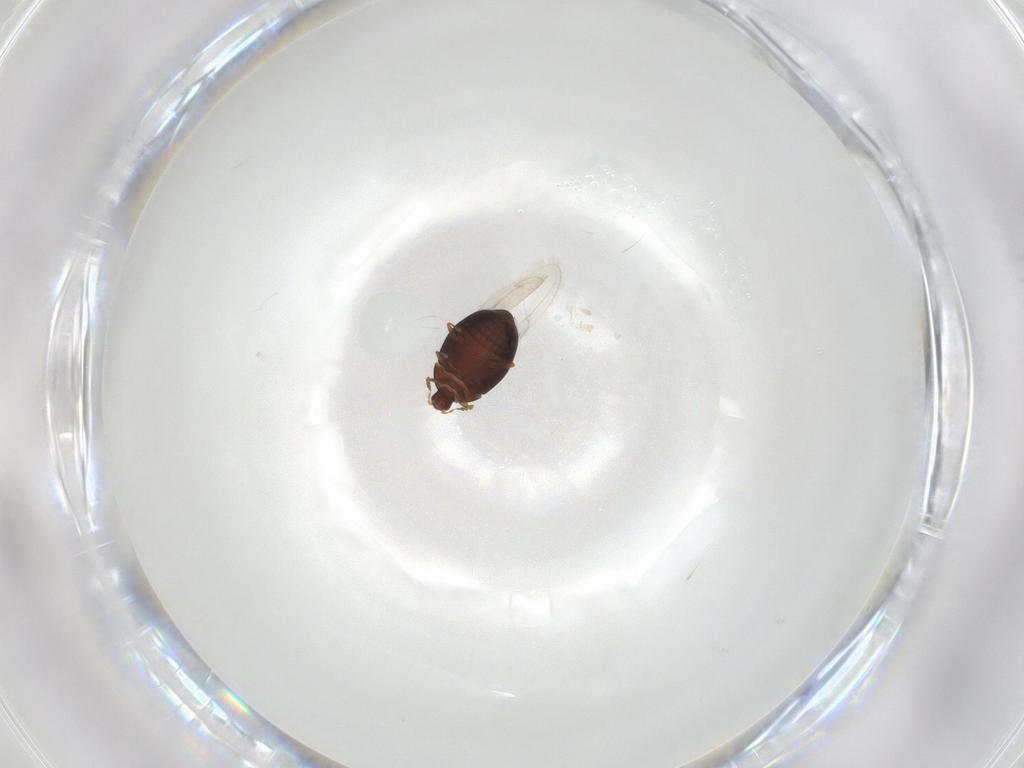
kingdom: Animalia
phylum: Arthropoda
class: Insecta
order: Coleoptera
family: Corylophidae
